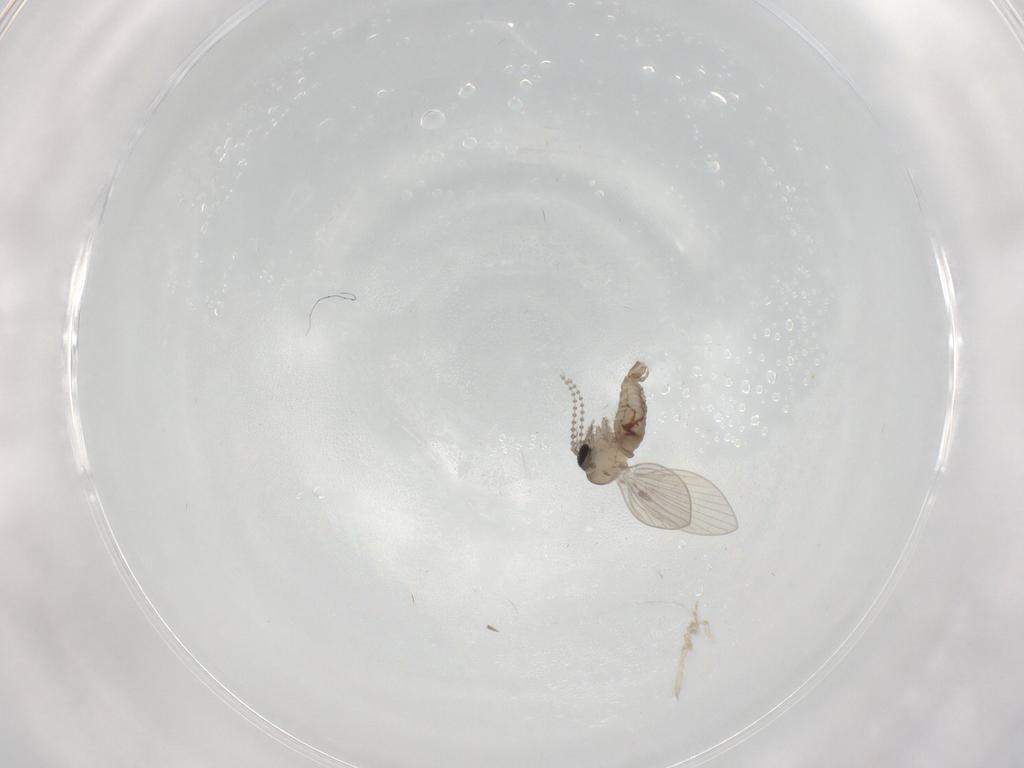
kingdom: Animalia
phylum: Arthropoda
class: Insecta
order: Diptera
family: Psychodidae
